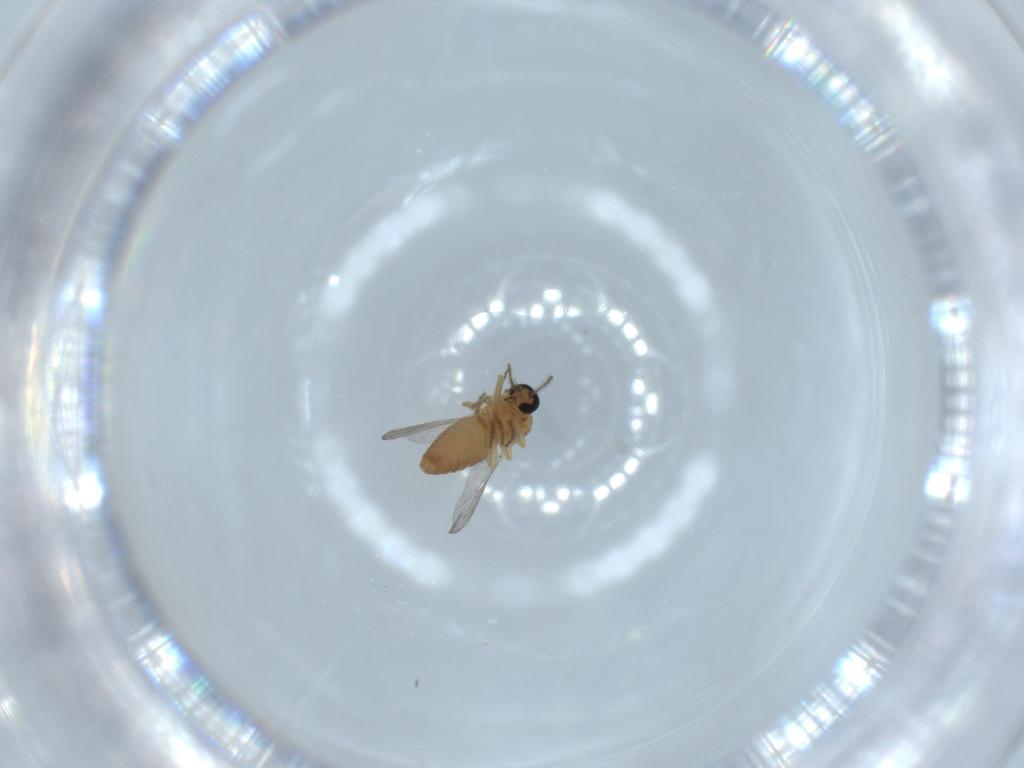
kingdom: Animalia
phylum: Arthropoda
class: Insecta
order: Diptera
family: Ceratopogonidae
